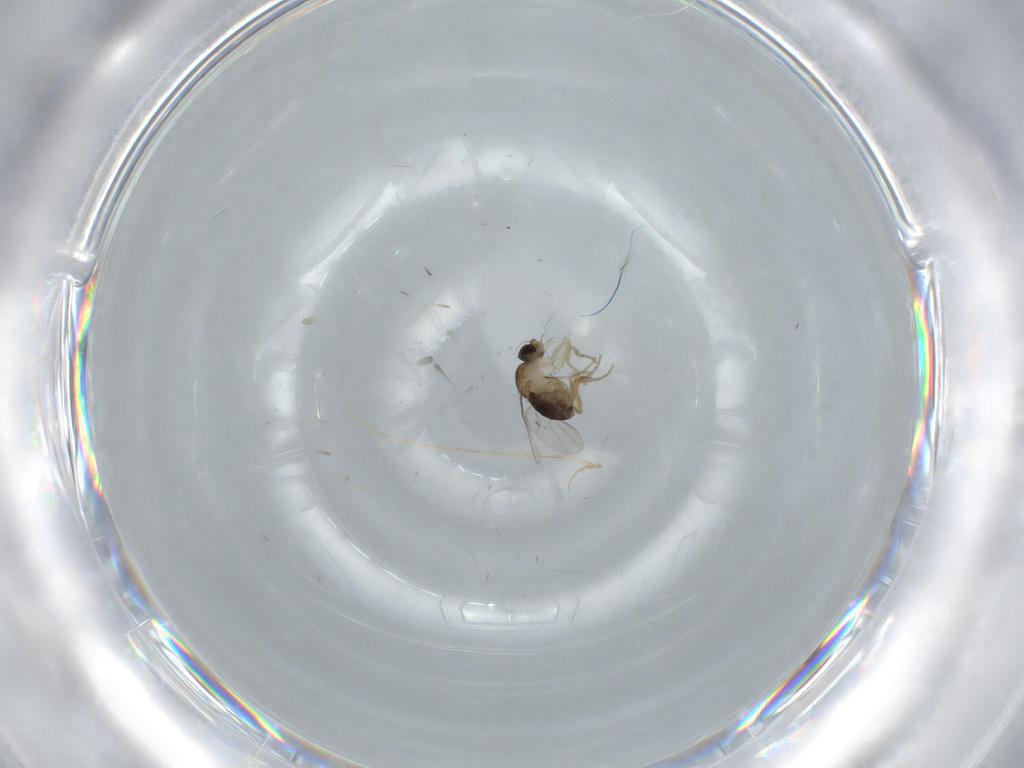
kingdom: Animalia
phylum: Arthropoda
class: Insecta
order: Diptera
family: Phoridae
